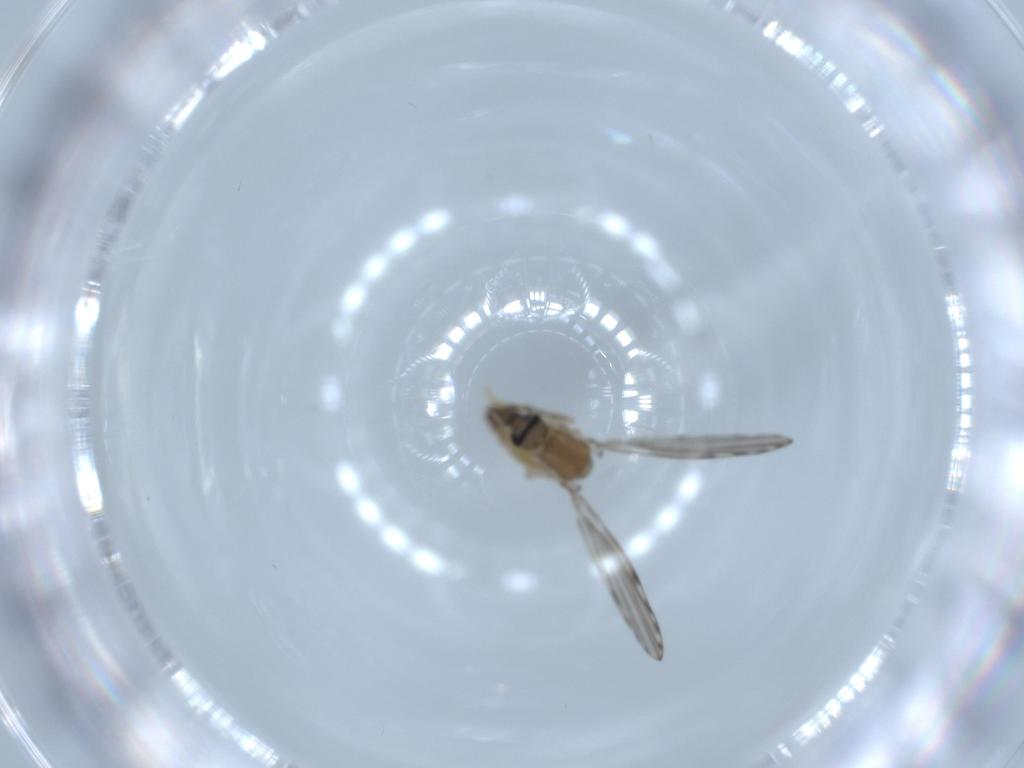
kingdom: Animalia
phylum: Arthropoda
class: Insecta
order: Diptera
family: Psychodidae
